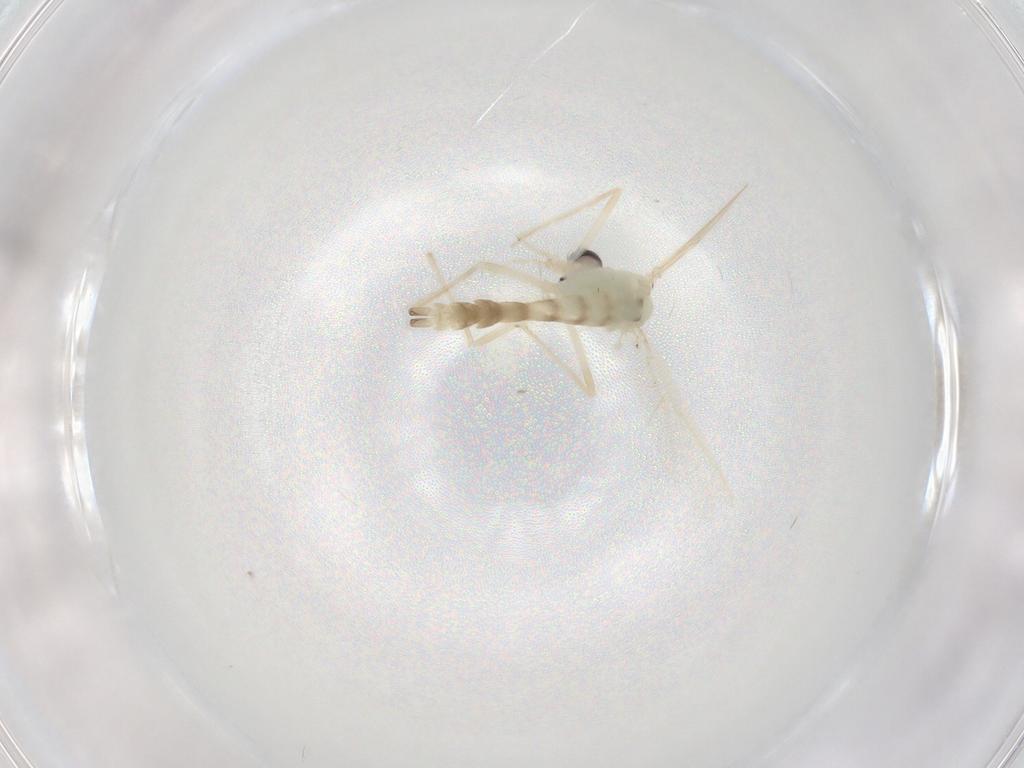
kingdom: Animalia
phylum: Arthropoda
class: Insecta
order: Diptera
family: Chironomidae
